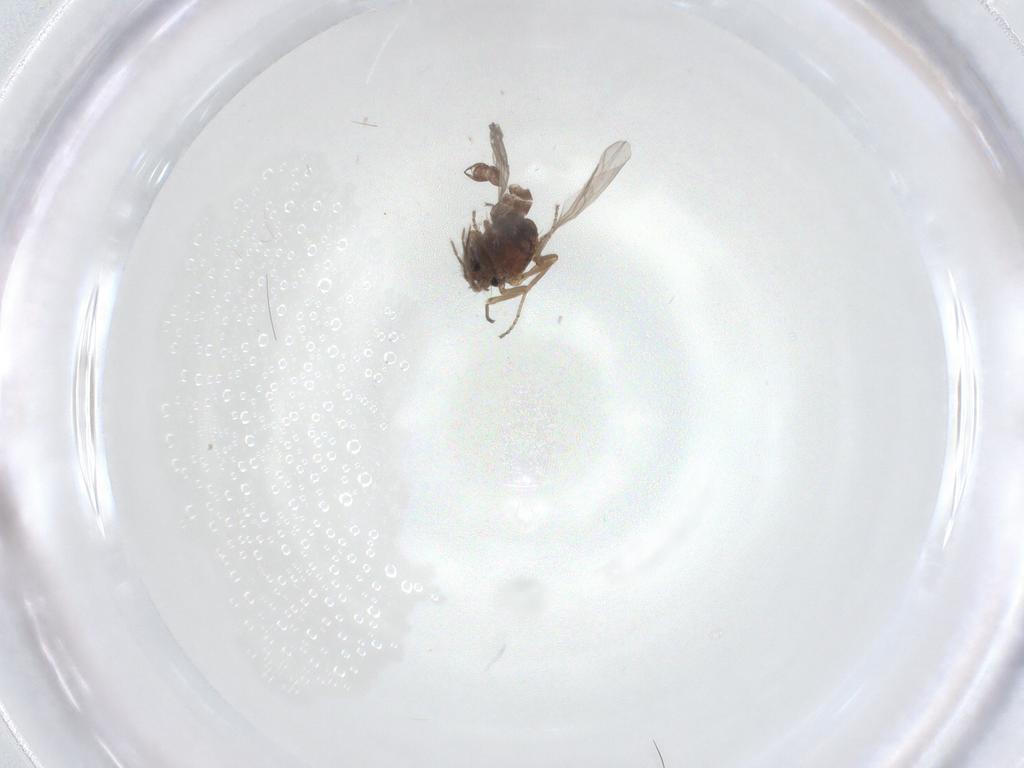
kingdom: Animalia
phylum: Arthropoda
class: Insecta
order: Diptera
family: Ceratopogonidae
